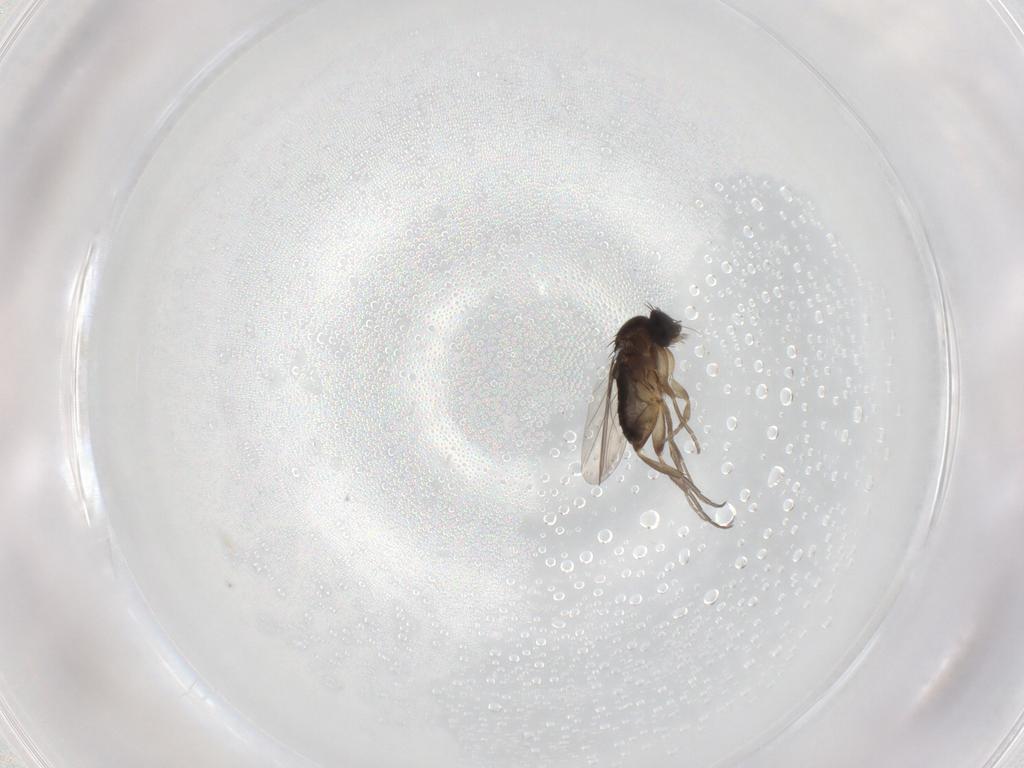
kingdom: Animalia
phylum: Arthropoda
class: Insecta
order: Diptera
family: Phoridae
